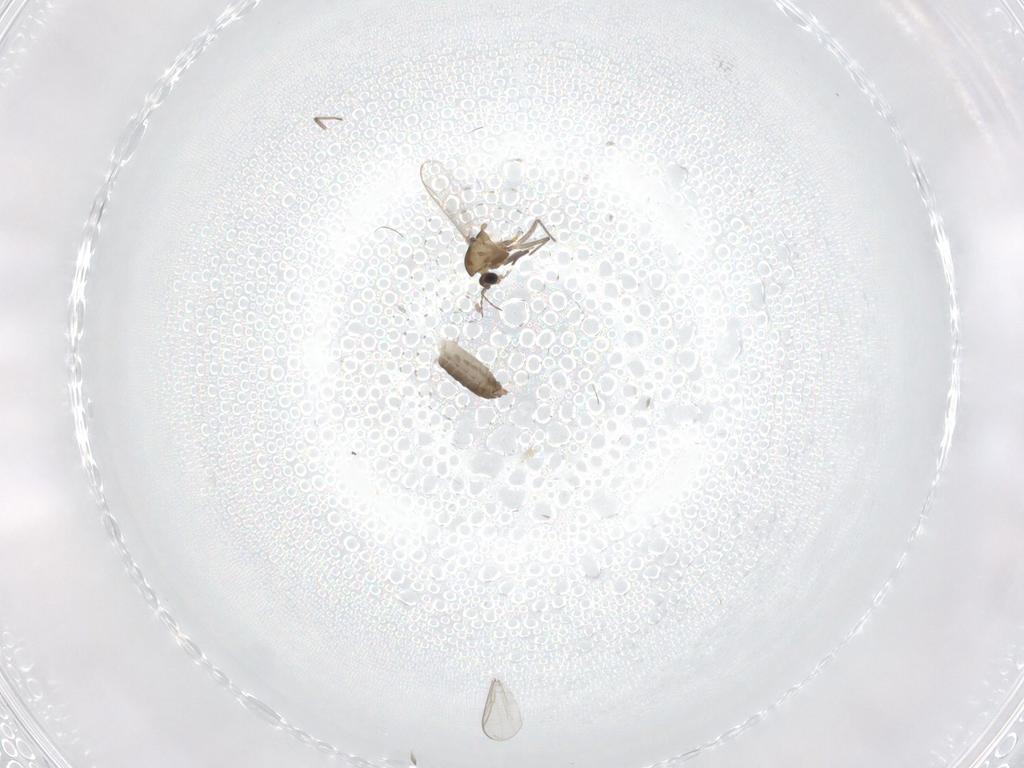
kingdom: Animalia
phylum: Arthropoda
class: Insecta
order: Diptera
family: Chironomidae
